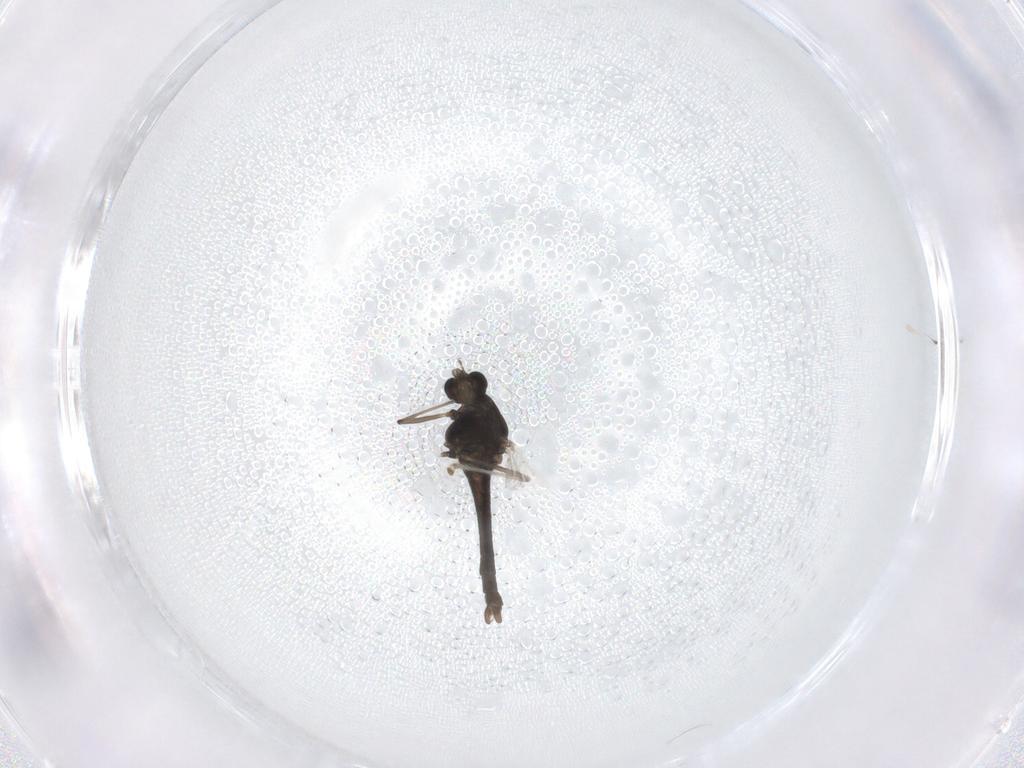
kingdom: Animalia
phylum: Arthropoda
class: Insecta
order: Diptera
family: Chironomidae
